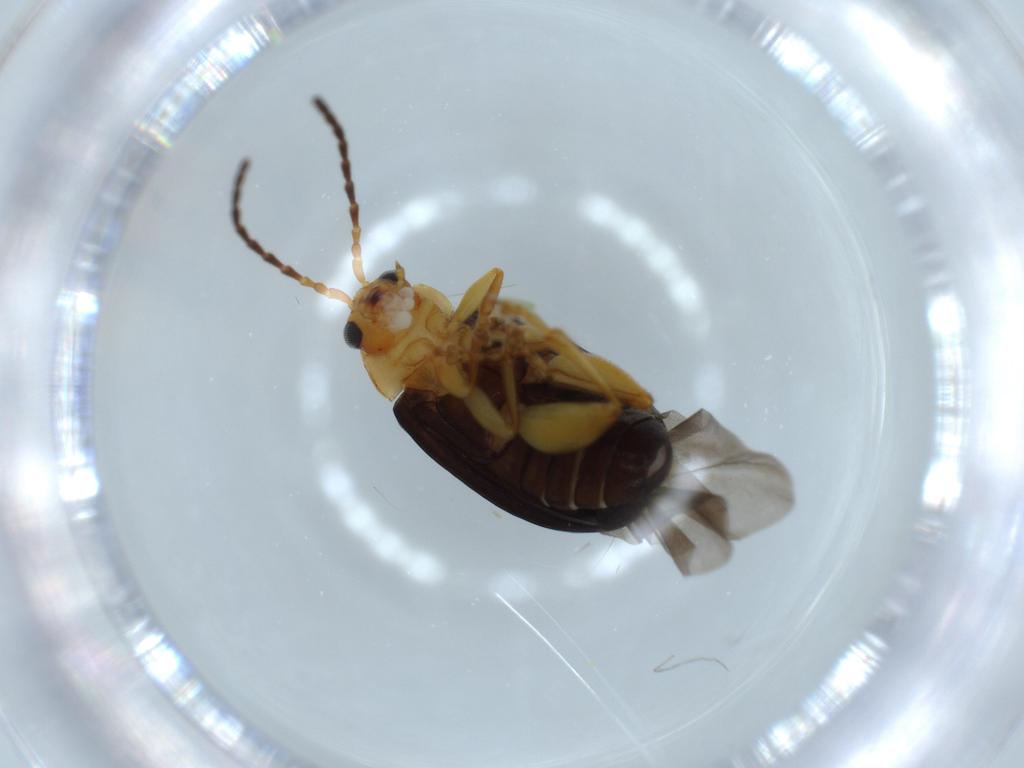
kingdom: Animalia
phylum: Arthropoda
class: Insecta
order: Coleoptera
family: Chrysomelidae
